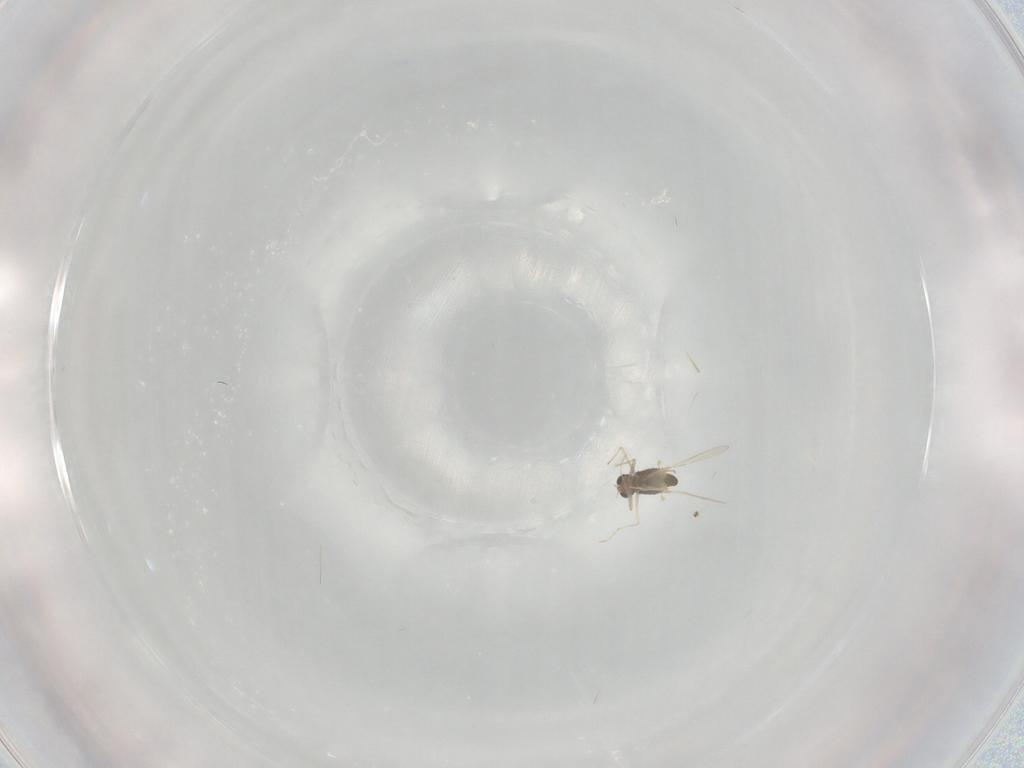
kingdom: Animalia
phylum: Arthropoda
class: Insecta
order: Diptera
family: Chironomidae
